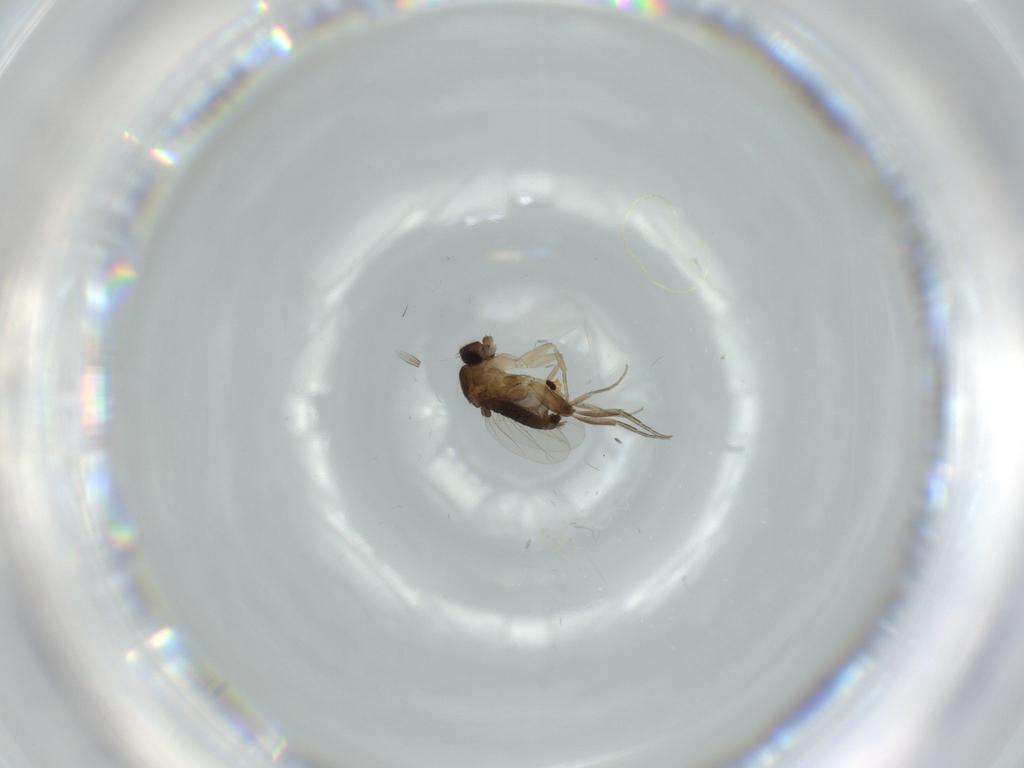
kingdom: Animalia
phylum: Arthropoda
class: Insecta
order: Diptera
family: Phoridae
